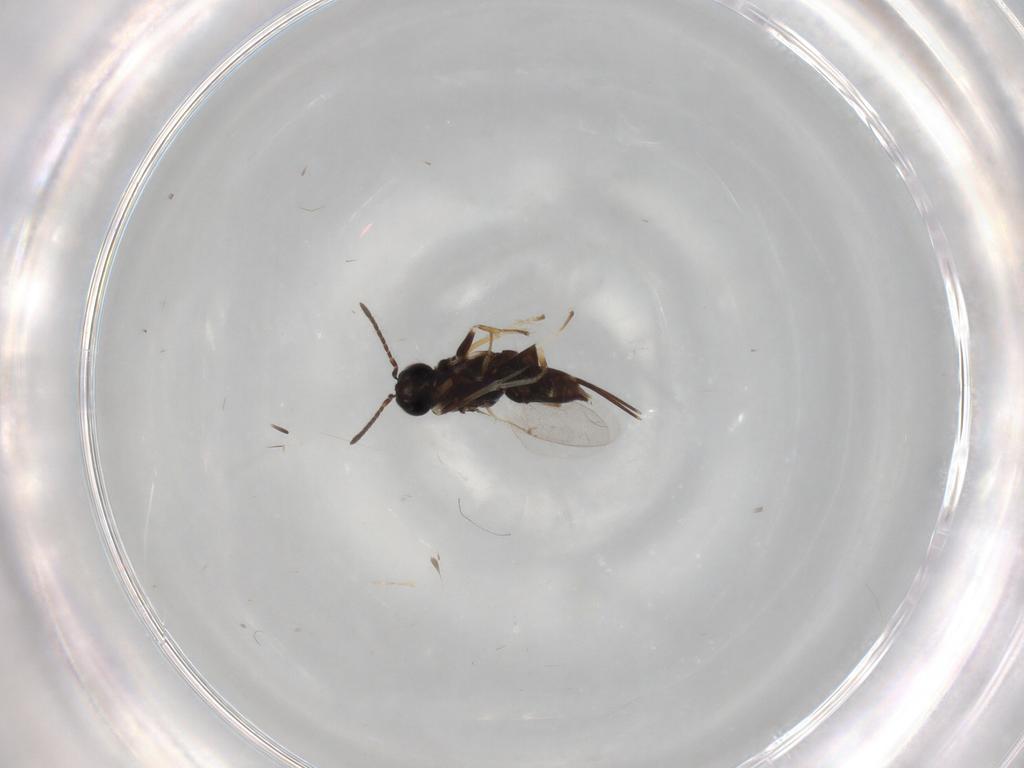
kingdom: Animalia
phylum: Arthropoda
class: Insecta
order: Hymenoptera
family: Encyrtidae
